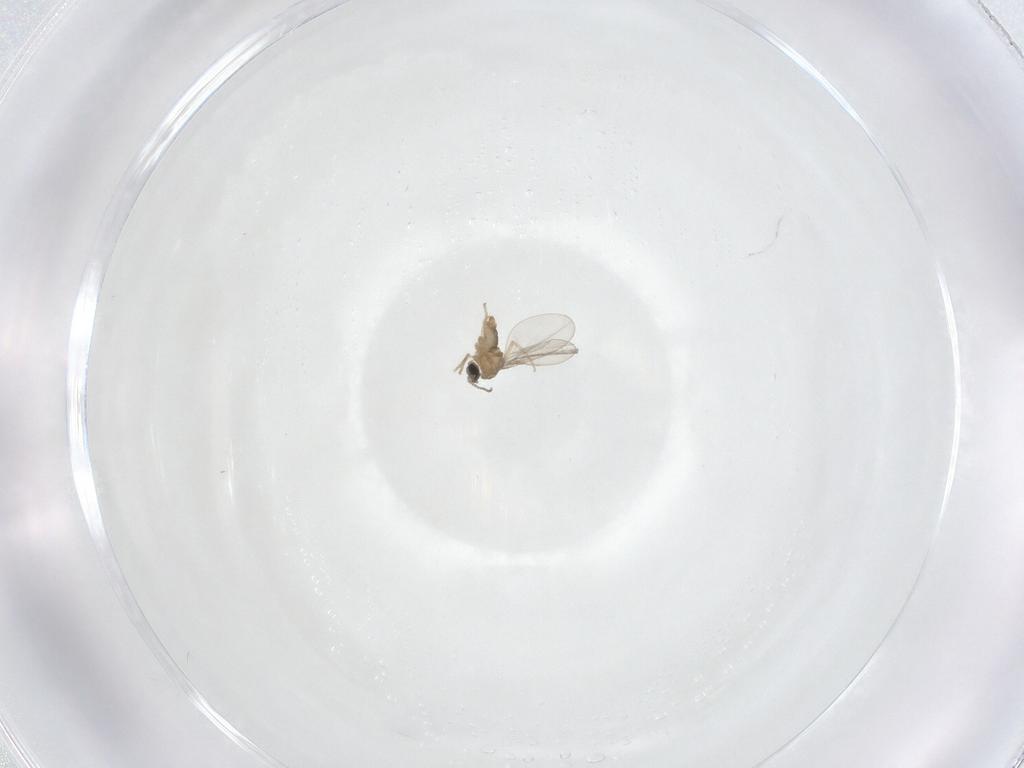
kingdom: Animalia
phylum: Arthropoda
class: Insecta
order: Diptera
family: Cecidomyiidae
